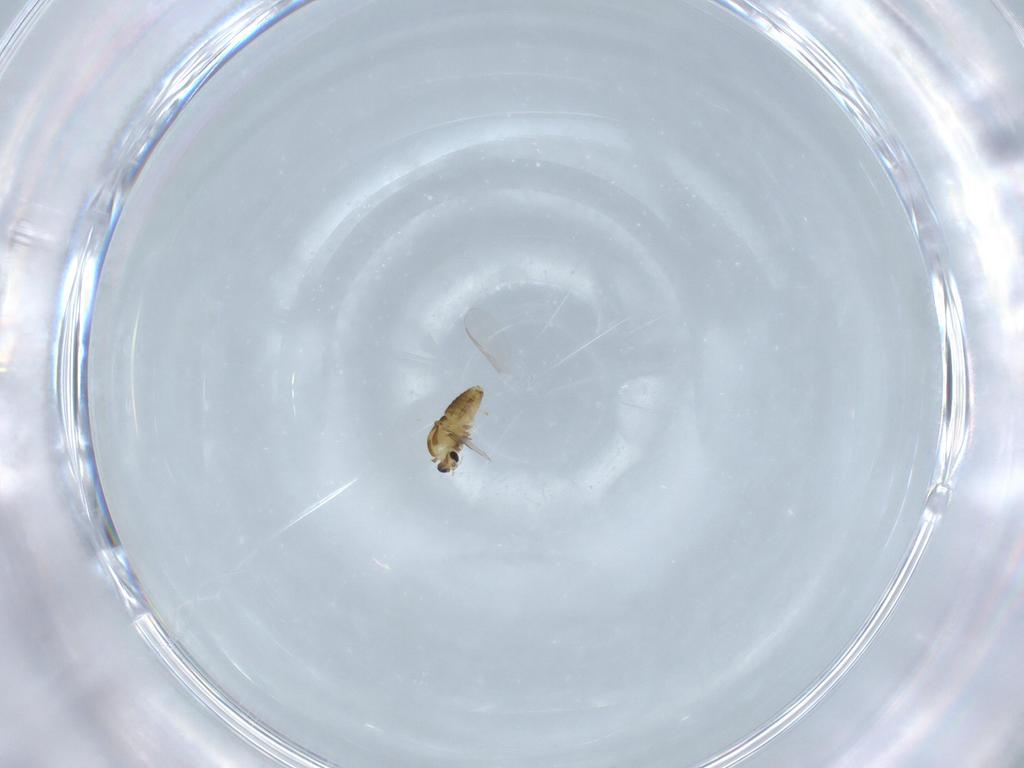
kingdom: Animalia
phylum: Arthropoda
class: Insecta
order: Diptera
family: Chironomidae
